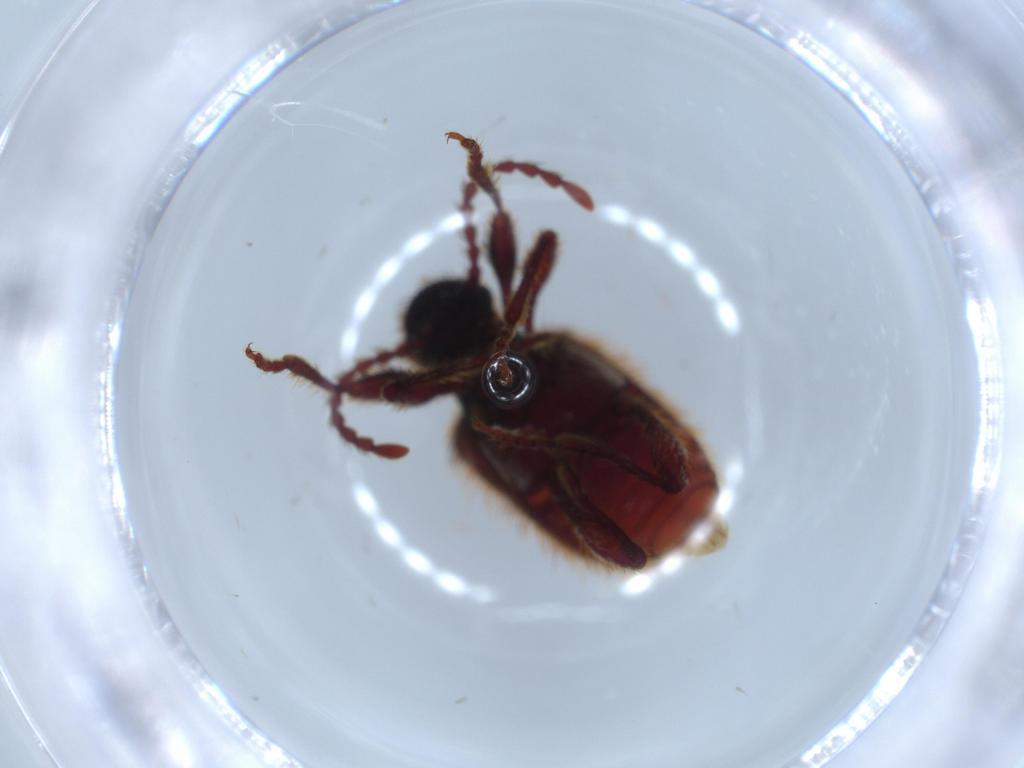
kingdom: Animalia
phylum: Arthropoda
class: Insecta
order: Coleoptera
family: Ptinidae
